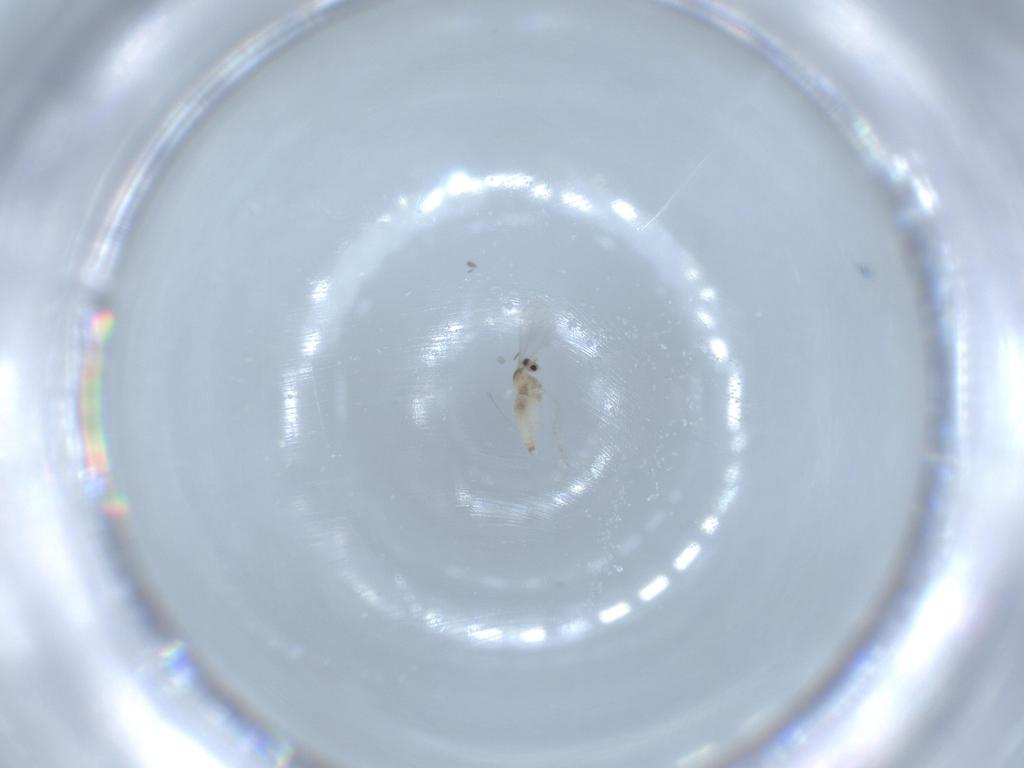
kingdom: Animalia
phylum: Arthropoda
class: Insecta
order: Diptera
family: Cecidomyiidae
